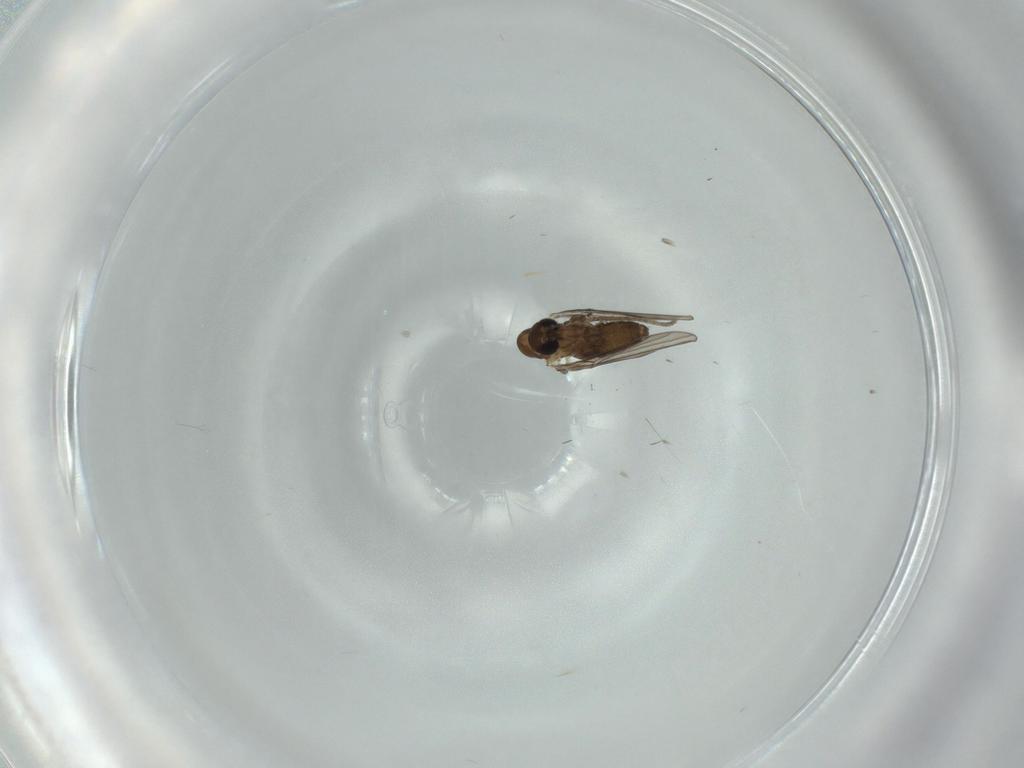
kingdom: Animalia
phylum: Arthropoda
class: Insecta
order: Diptera
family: Psychodidae
